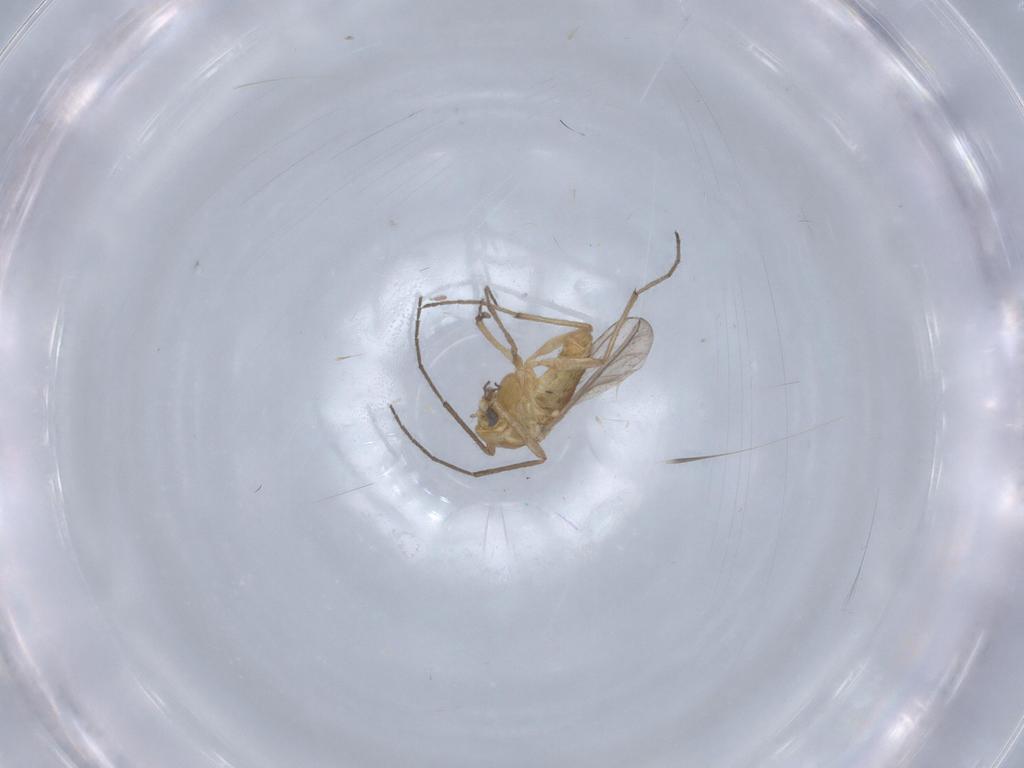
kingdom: Animalia
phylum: Arthropoda
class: Insecta
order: Diptera
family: Chironomidae
